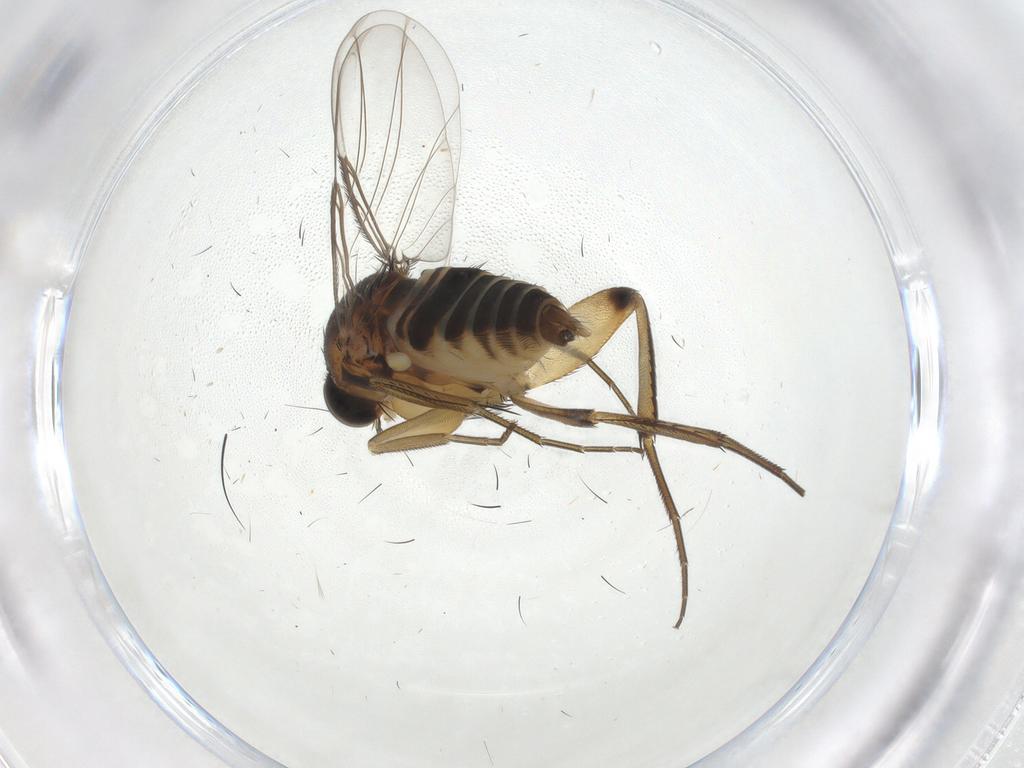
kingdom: Animalia
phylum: Arthropoda
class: Insecta
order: Diptera
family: Phoridae
